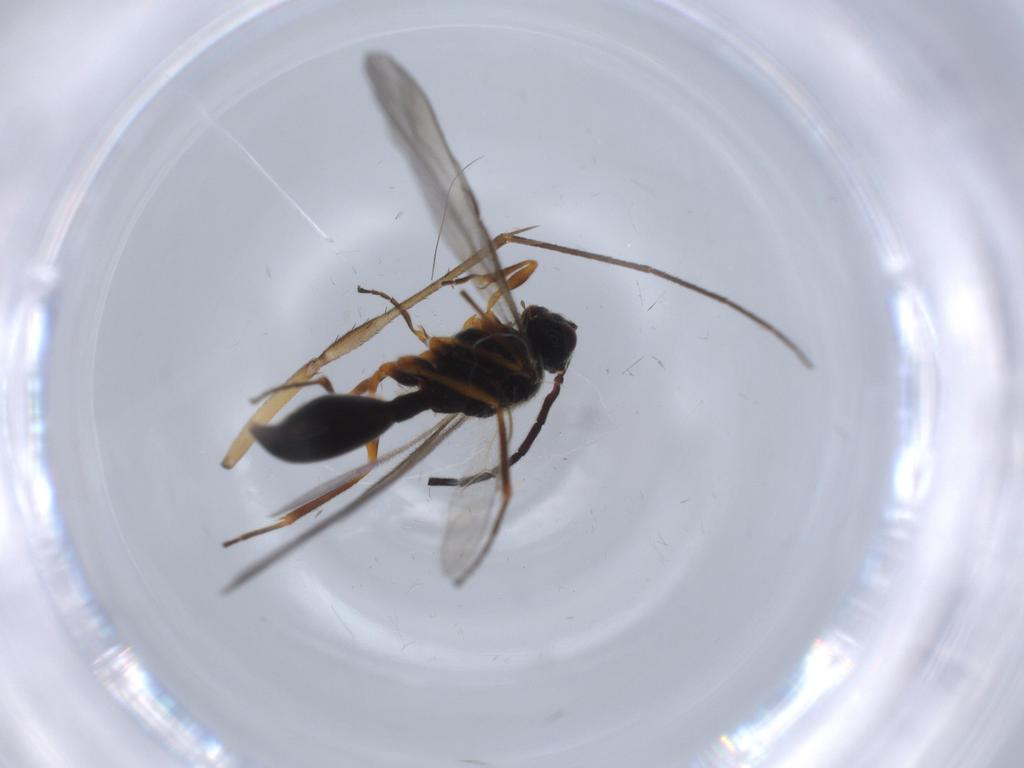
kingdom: Animalia
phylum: Arthropoda
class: Insecta
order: Hymenoptera
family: Diapriidae
